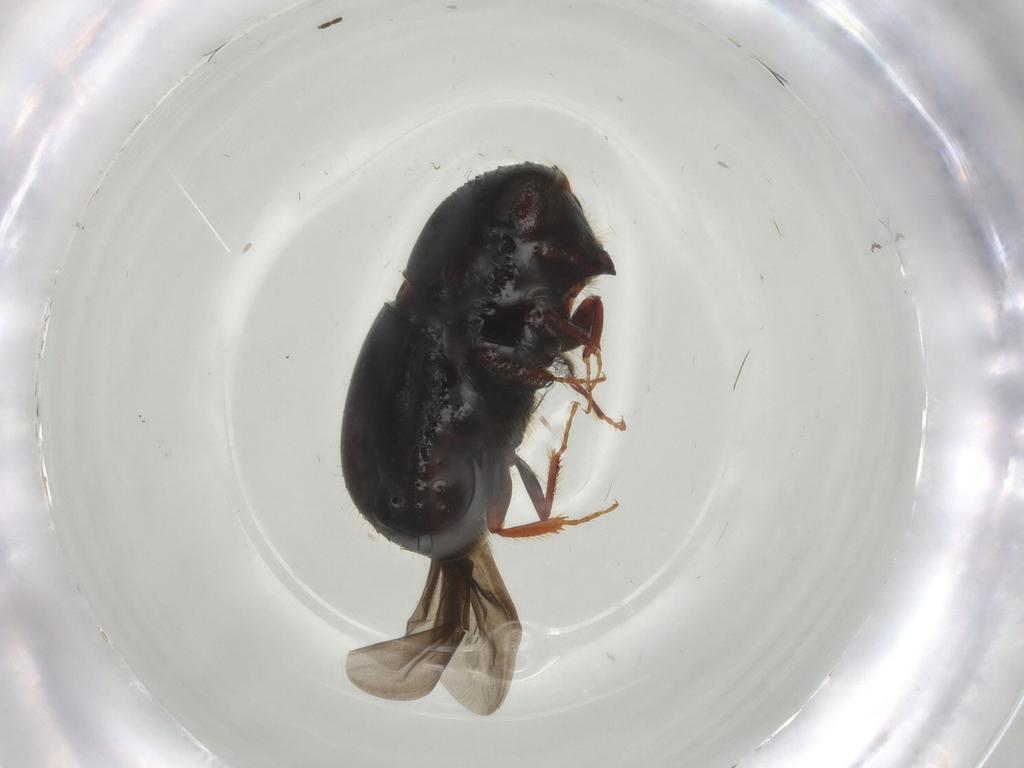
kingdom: Animalia
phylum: Arthropoda
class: Insecta
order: Coleoptera
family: Curculionidae
